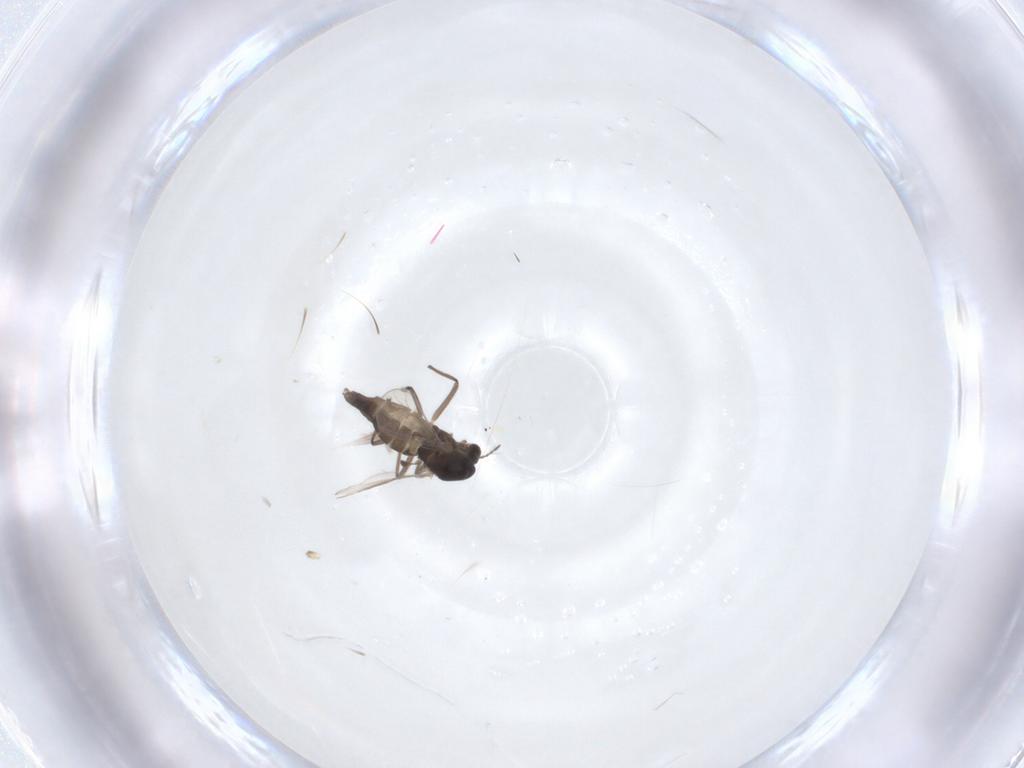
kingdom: Animalia
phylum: Arthropoda
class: Insecta
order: Diptera
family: Chironomidae
